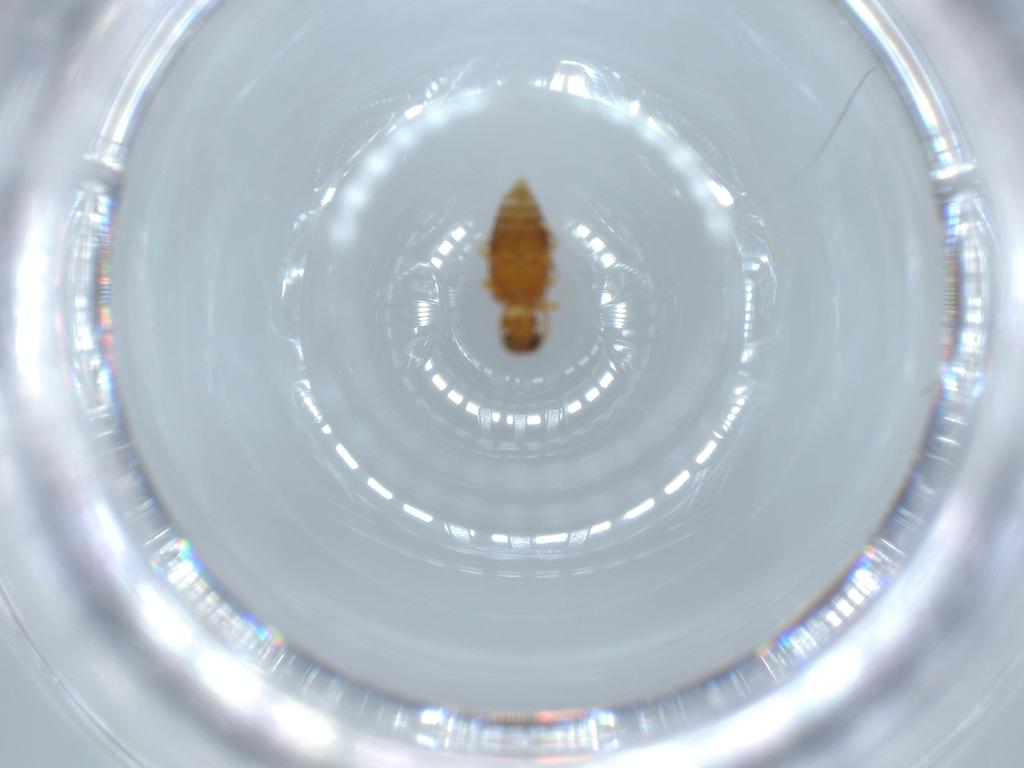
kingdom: Animalia
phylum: Arthropoda
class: Insecta
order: Coleoptera
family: Aderidae
